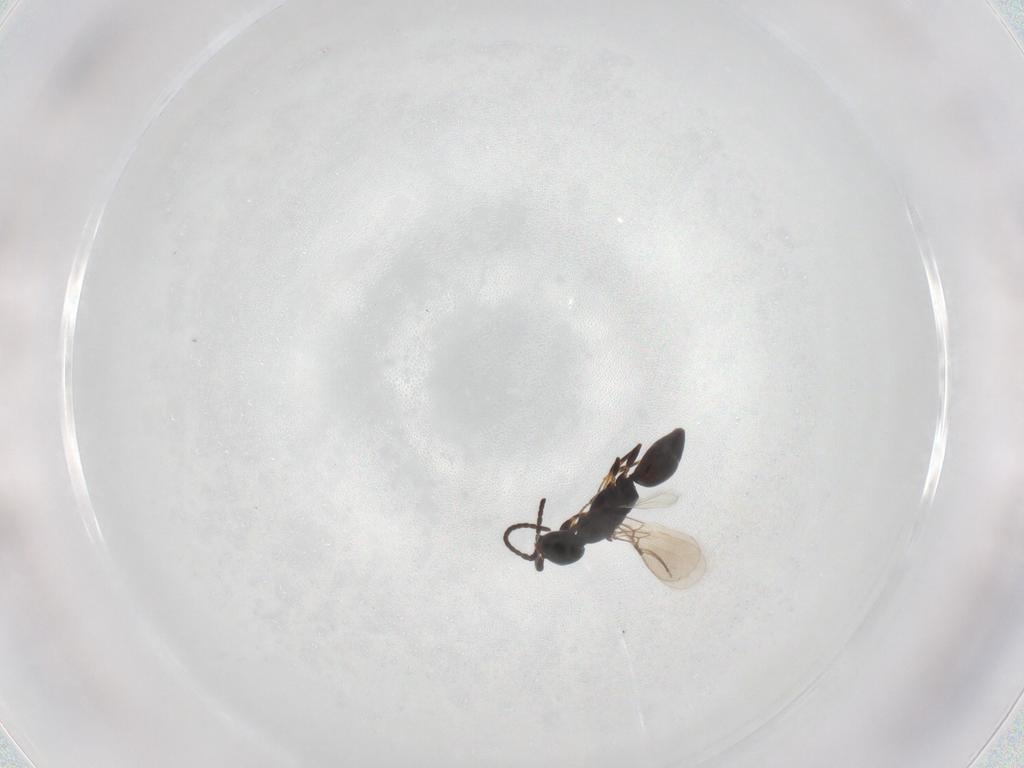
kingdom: Animalia
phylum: Arthropoda
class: Insecta
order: Hymenoptera
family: Bethylidae
